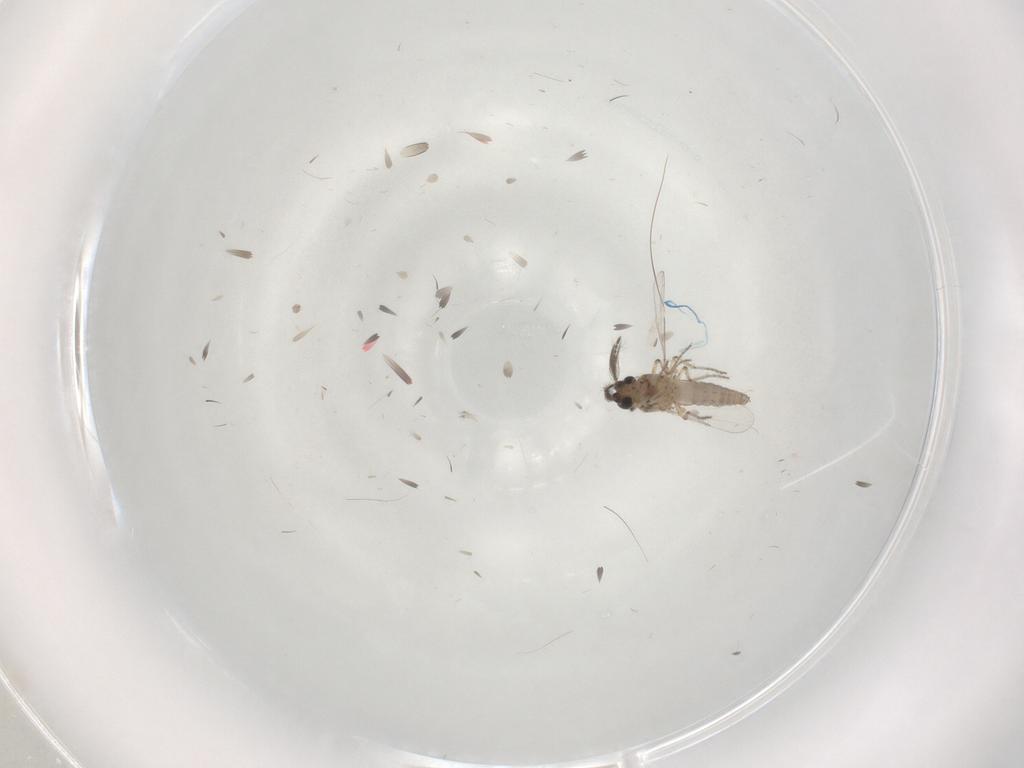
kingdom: Animalia
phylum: Arthropoda
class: Insecta
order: Diptera
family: Ceratopogonidae
